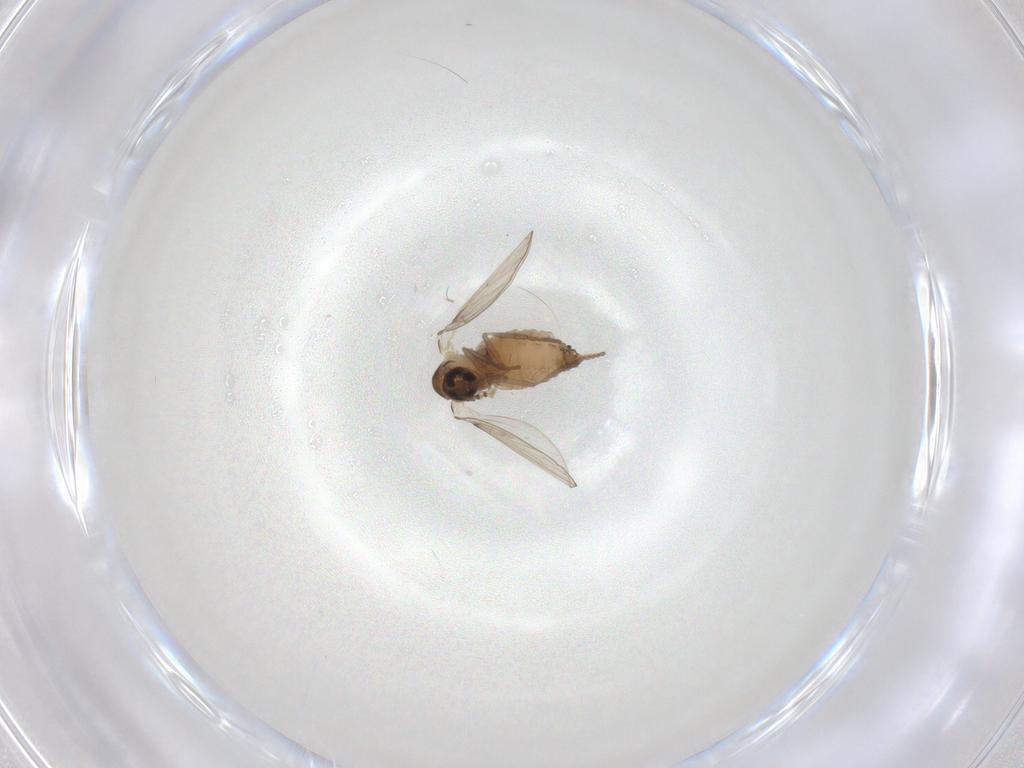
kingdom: Animalia
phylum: Arthropoda
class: Insecta
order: Diptera
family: Psychodidae
